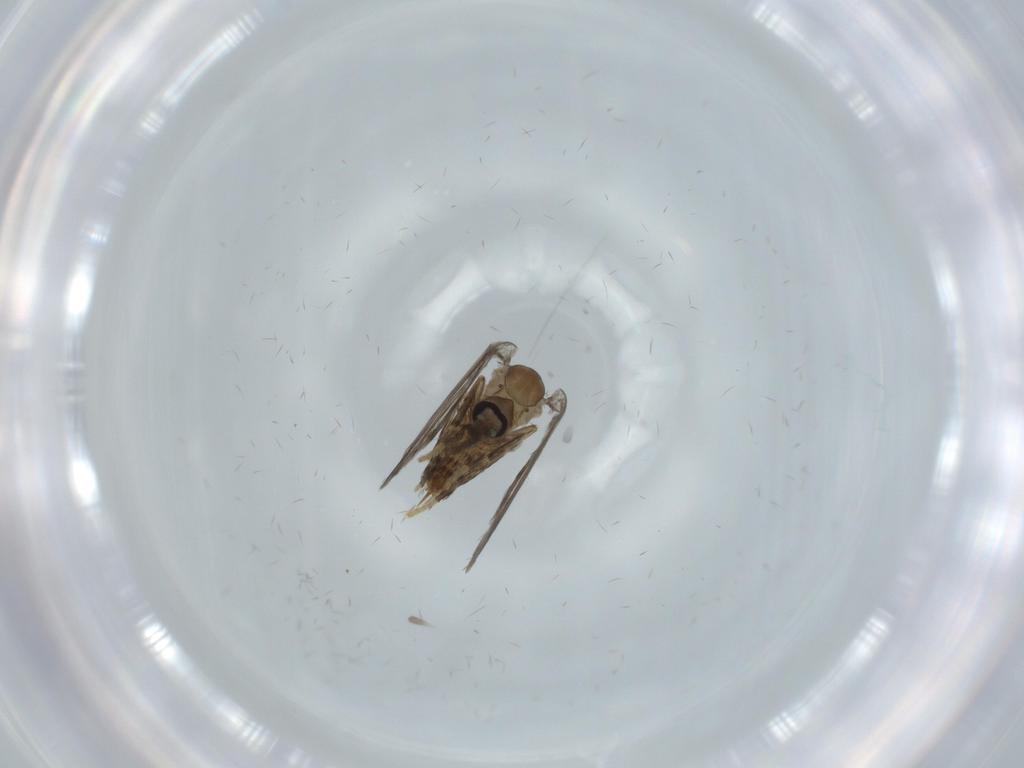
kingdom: Animalia
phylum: Arthropoda
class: Insecta
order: Diptera
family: Psychodidae
